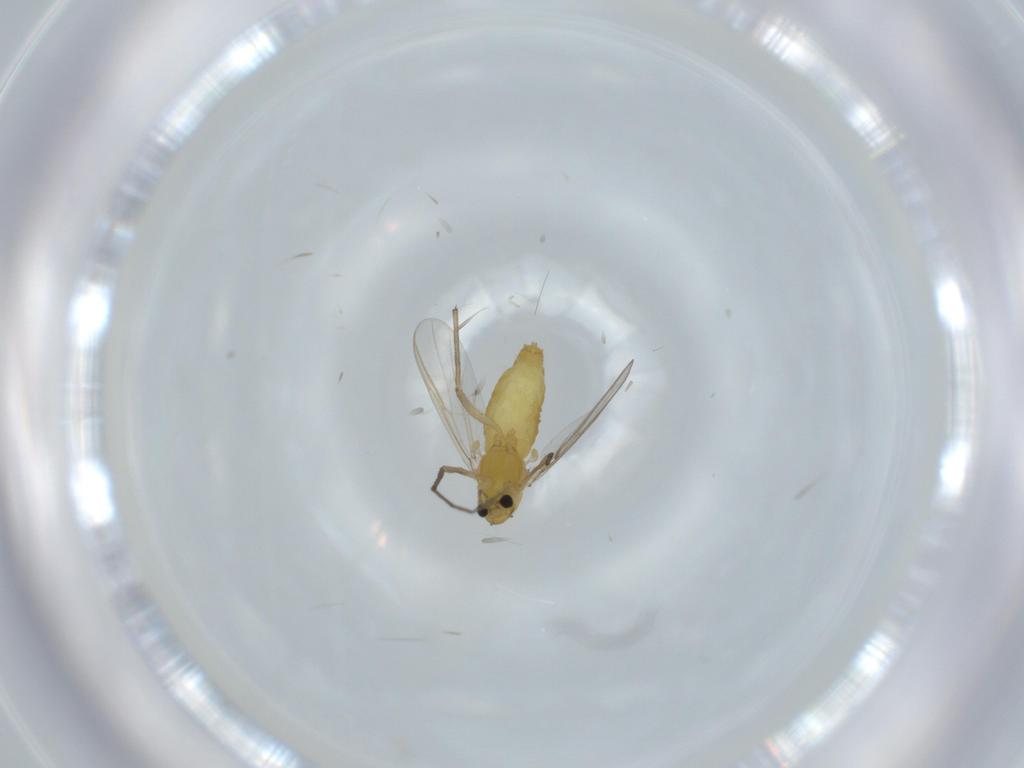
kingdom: Animalia
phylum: Arthropoda
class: Insecta
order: Diptera
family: Chironomidae
